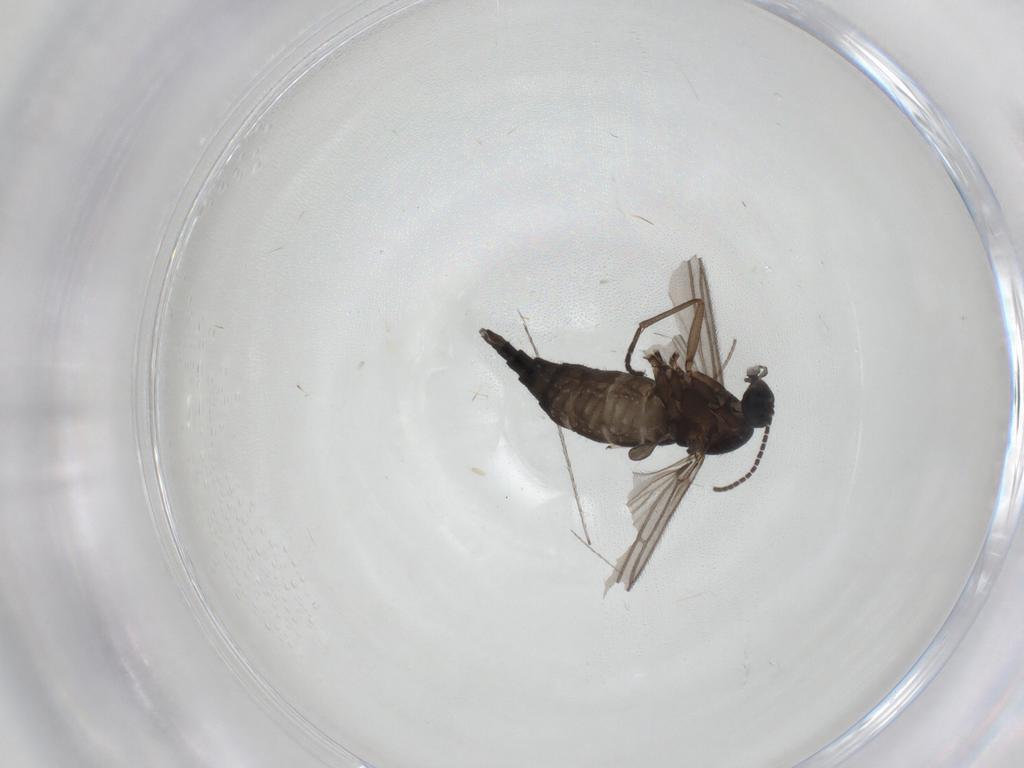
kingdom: Animalia
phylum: Arthropoda
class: Insecta
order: Diptera
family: Sciaridae
